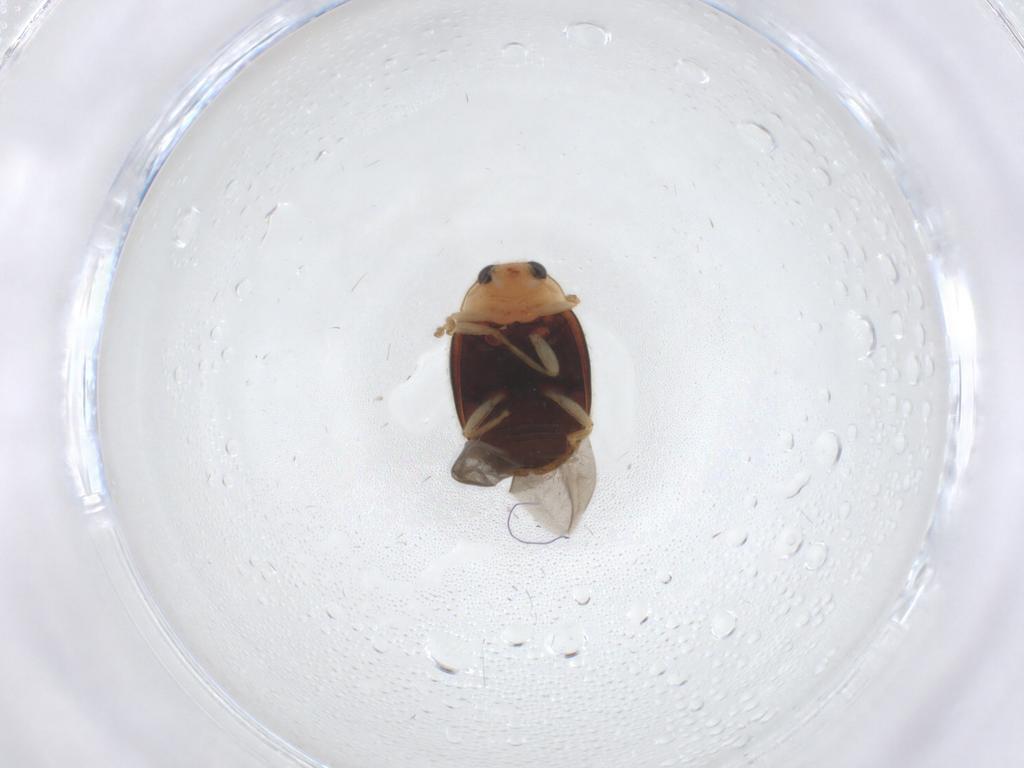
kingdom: Animalia
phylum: Arthropoda
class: Insecta
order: Coleoptera
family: Coccinellidae
